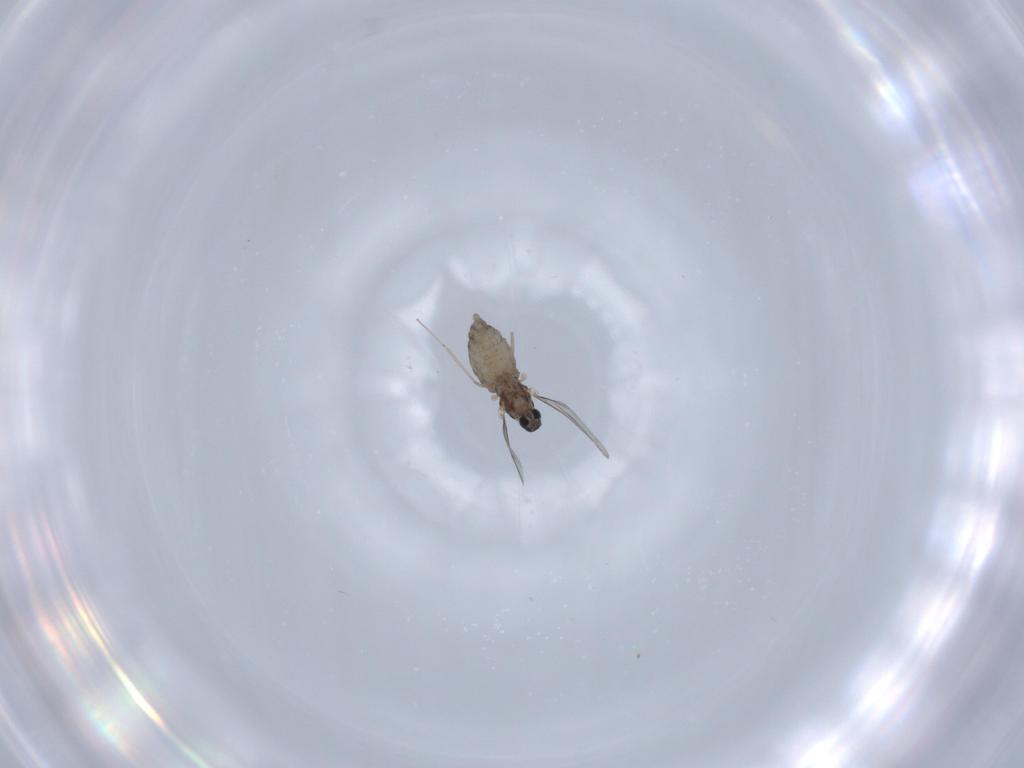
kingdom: Animalia
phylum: Arthropoda
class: Insecta
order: Diptera
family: Cecidomyiidae
